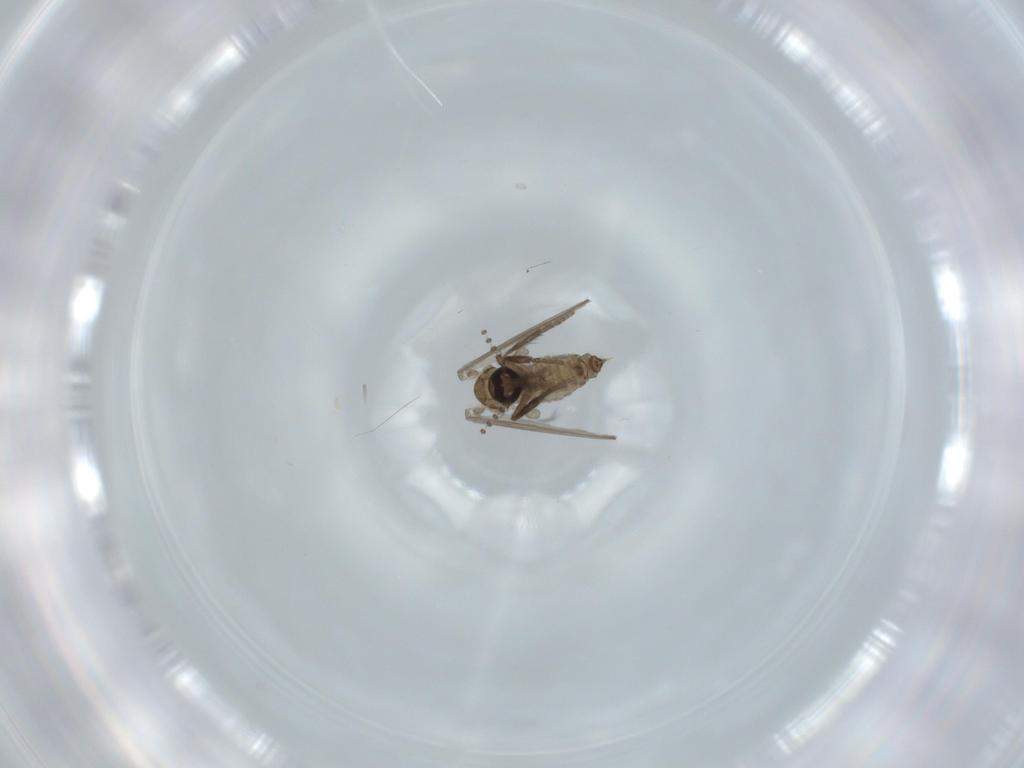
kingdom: Animalia
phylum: Arthropoda
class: Insecta
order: Diptera
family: Psychodidae
